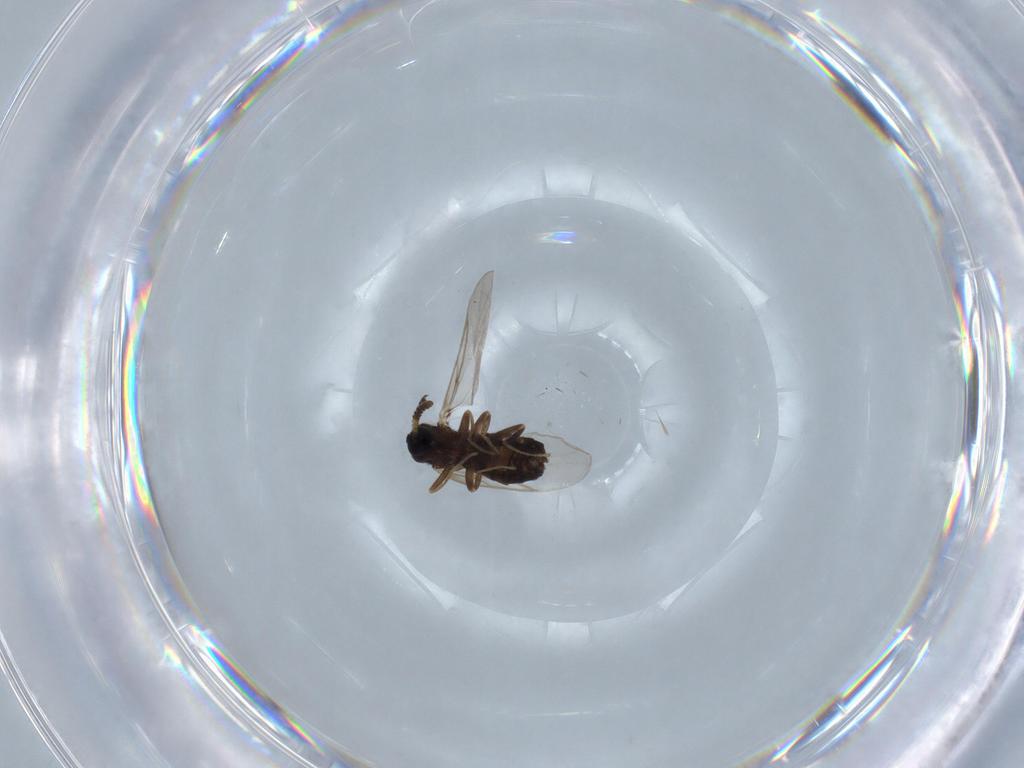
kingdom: Animalia
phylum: Arthropoda
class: Insecta
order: Diptera
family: Hybotidae
